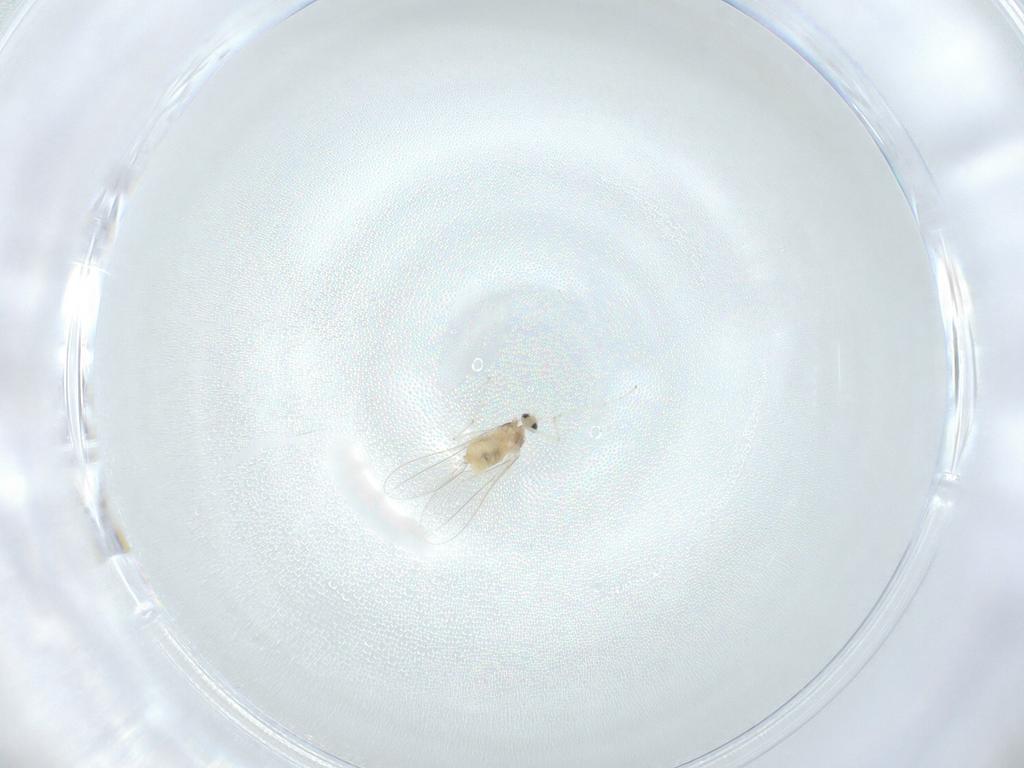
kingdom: Animalia
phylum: Arthropoda
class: Insecta
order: Diptera
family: Cecidomyiidae
